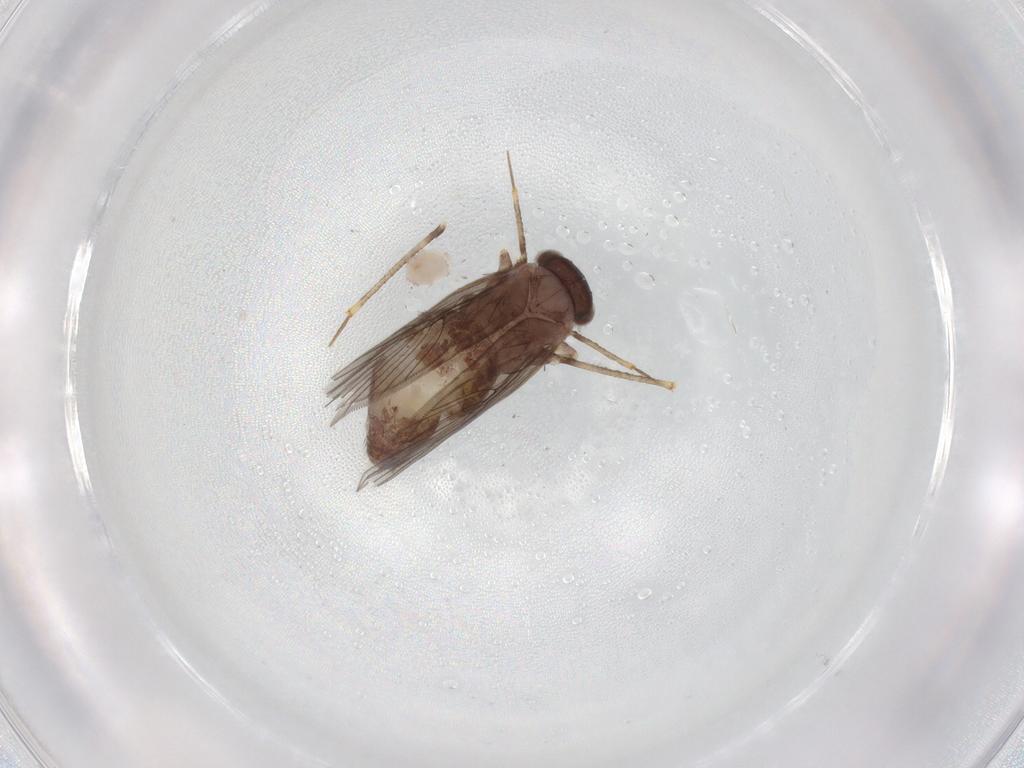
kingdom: Animalia
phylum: Arthropoda
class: Insecta
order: Psocodea
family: Lepidopsocidae
